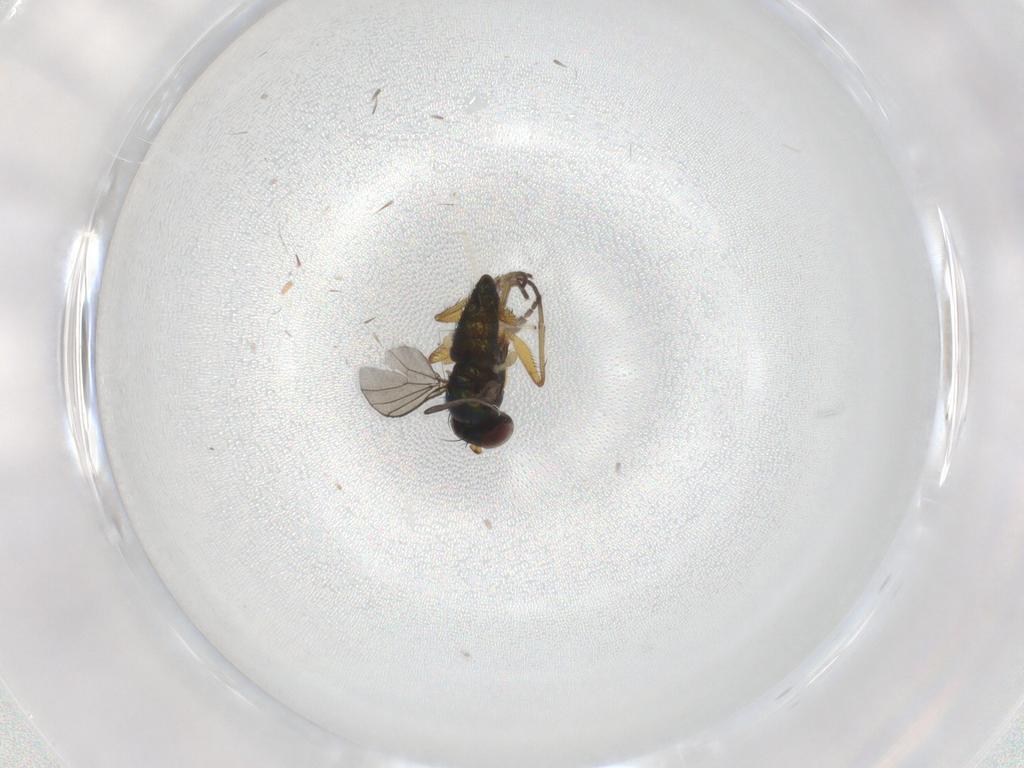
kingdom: Animalia
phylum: Arthropoda
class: Insecta
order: Diptera
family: Dolichopodidae
